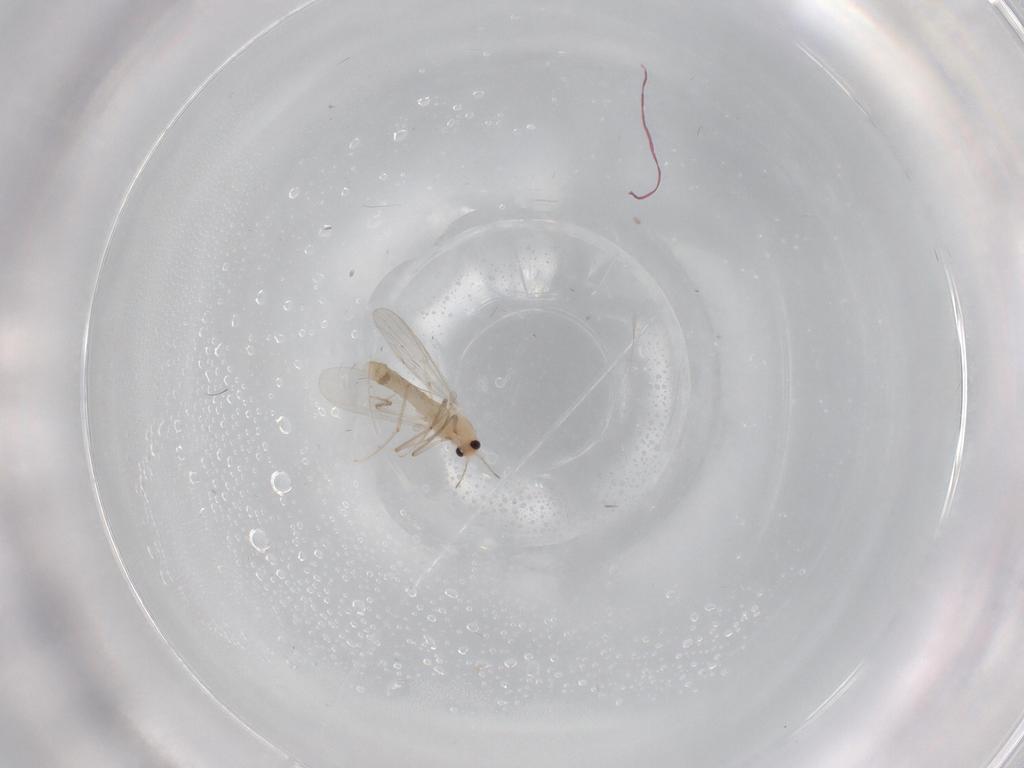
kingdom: Animalia
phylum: Arthropoda
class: Insecta
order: Diptera
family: Chironomidae
